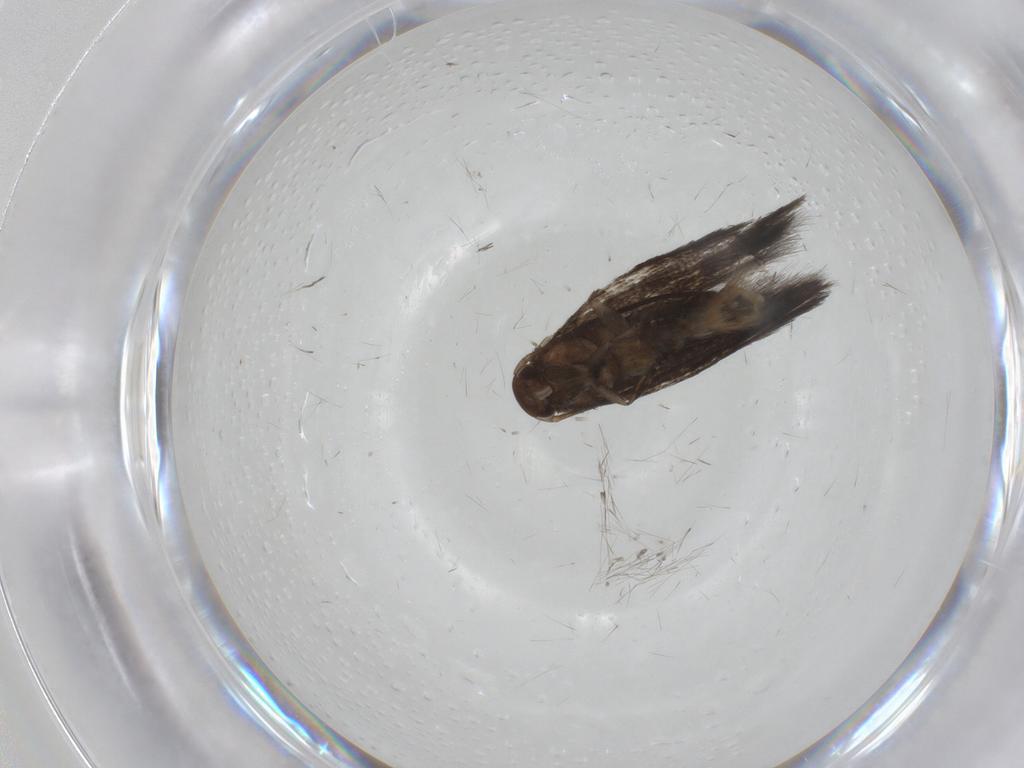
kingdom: Animalia
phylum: Arthropoda
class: Insecta
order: Lepidoptera
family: Elachistidae
